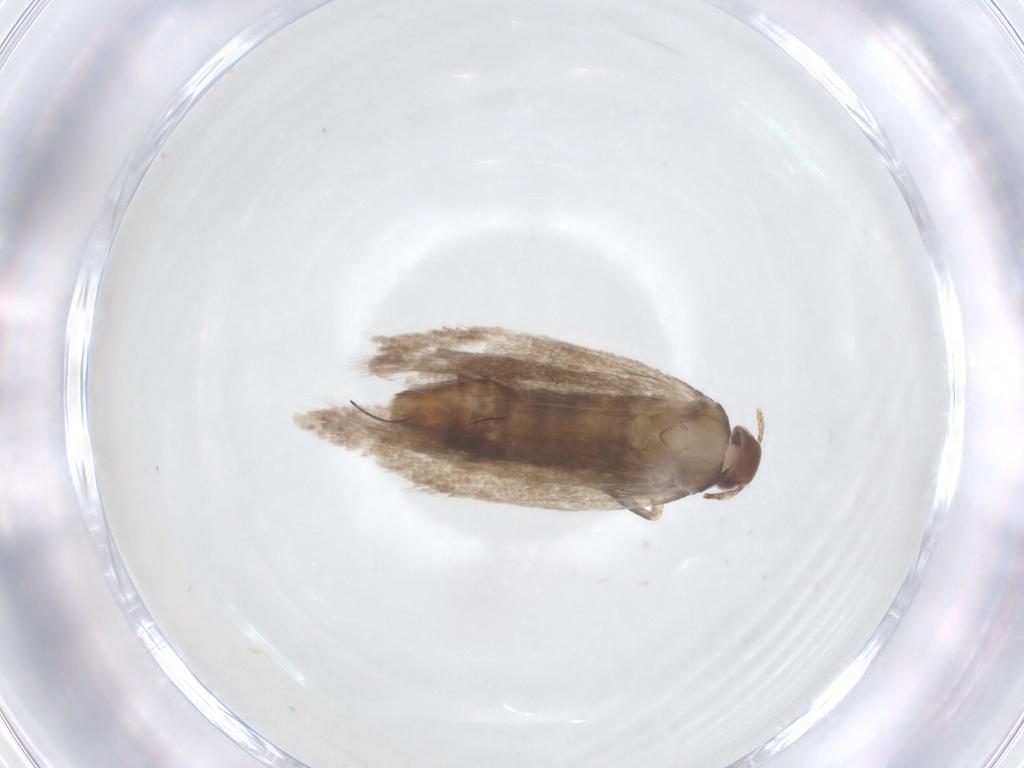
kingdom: Animalia
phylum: Arthropoda
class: Insecta
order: Lepidoptera
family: Gelechiidae
